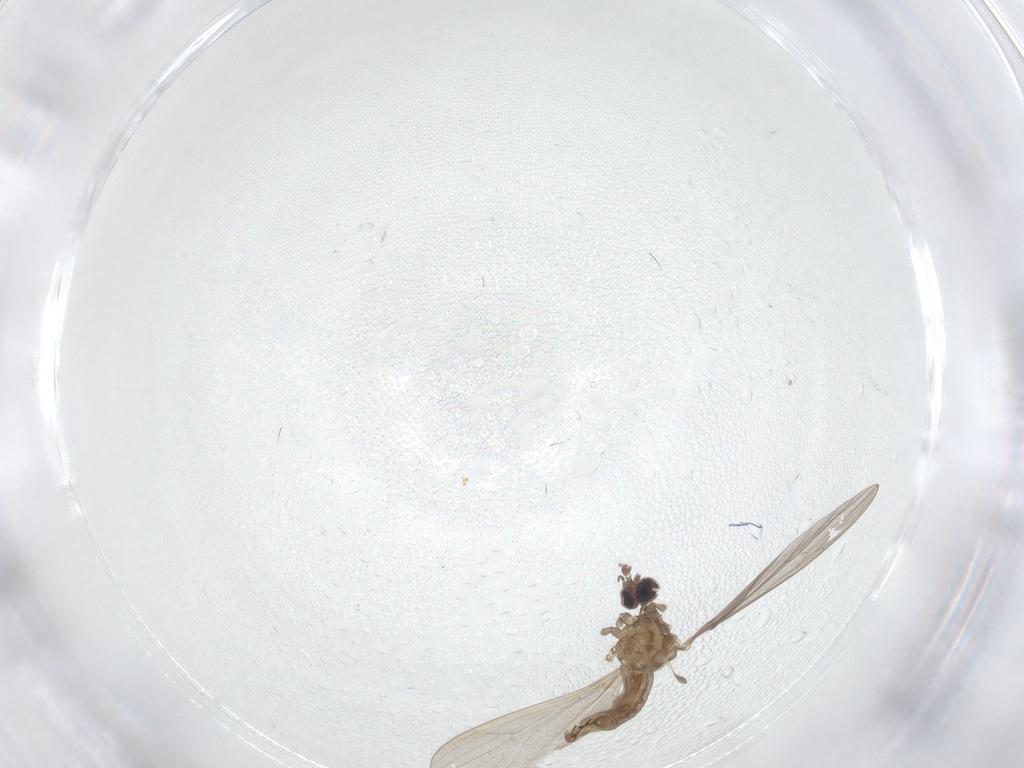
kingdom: Animalia
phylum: Arthropoda
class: Insecta
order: Diptera
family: Limoniidae
